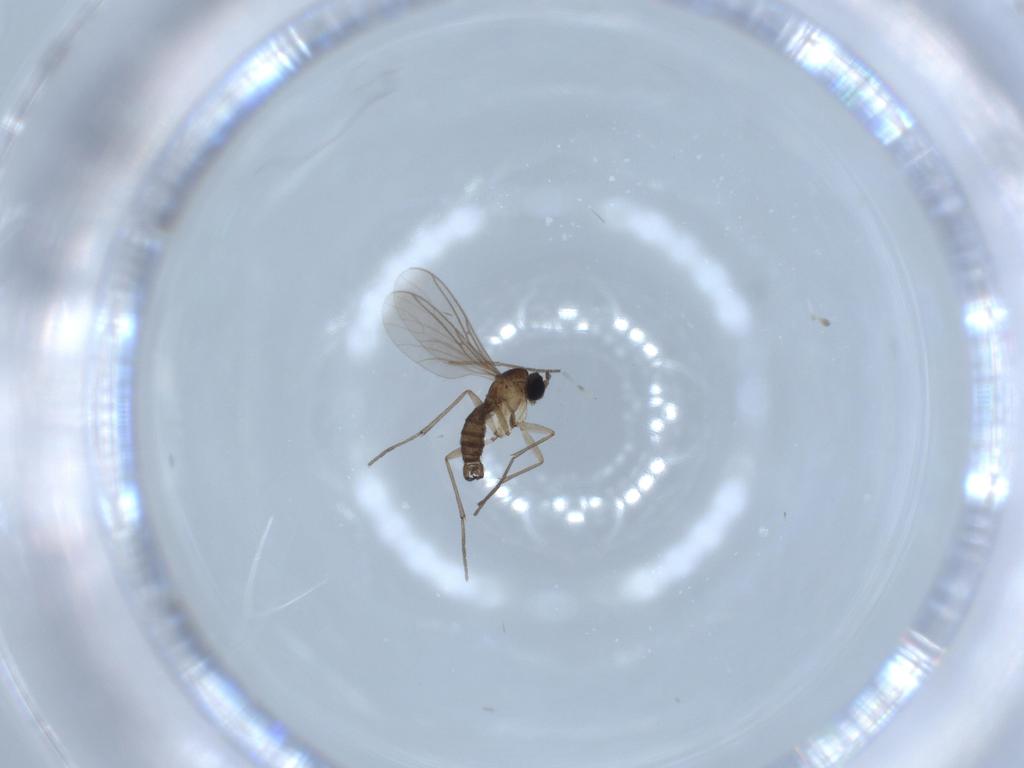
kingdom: Animalia
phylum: Arthropoda
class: Insecta
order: Diptera
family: Sciaridae
